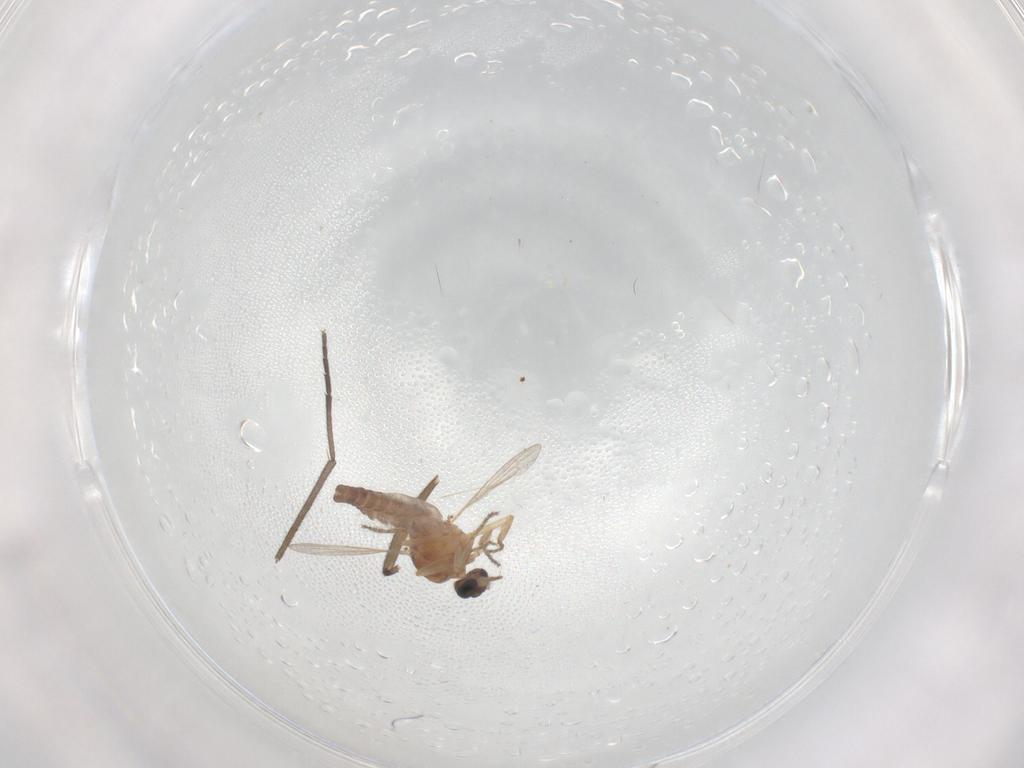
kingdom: Animalia
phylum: Arthropoda
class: Insecta
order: Diptera
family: Ceratopogonidae
